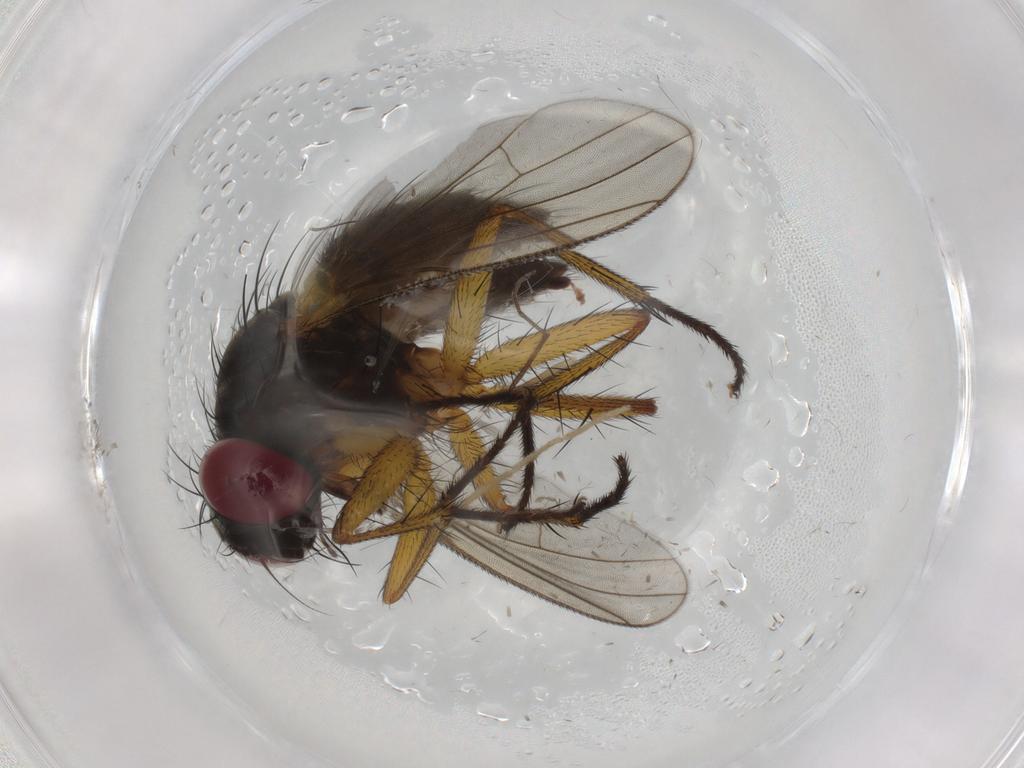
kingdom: Animalia
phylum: Arthropoda
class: Insecta
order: Diptera
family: Muscidae
